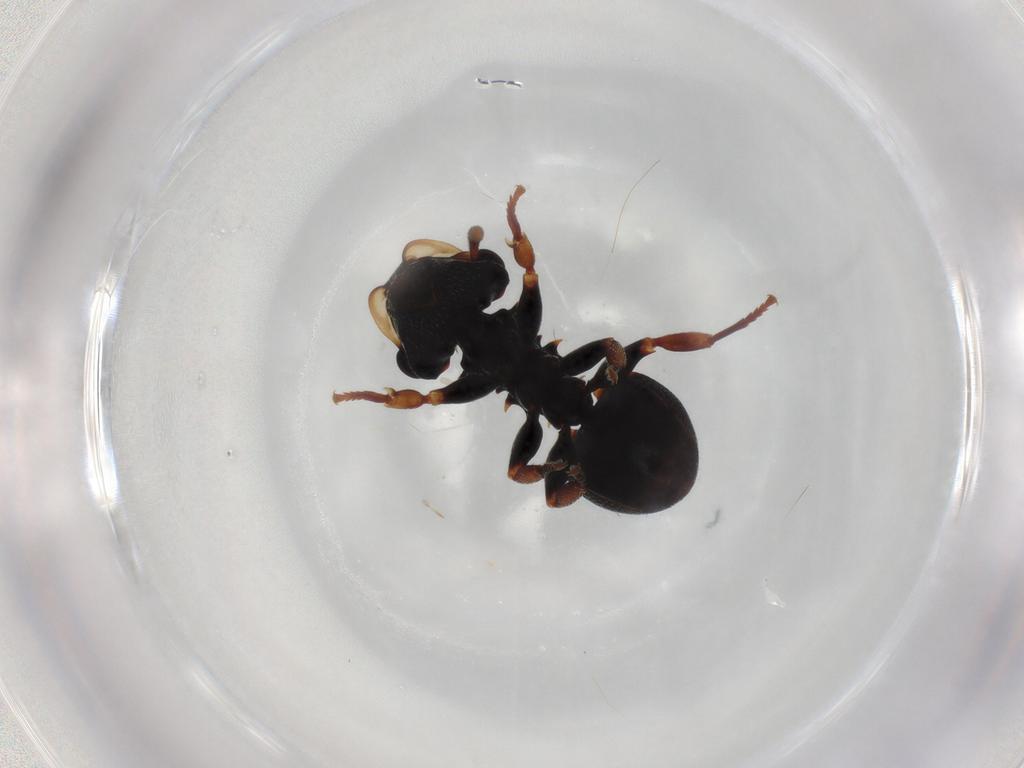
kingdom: Animalia
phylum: Arthropoda
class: Insecta
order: Hymenoptera
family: Formicidae
